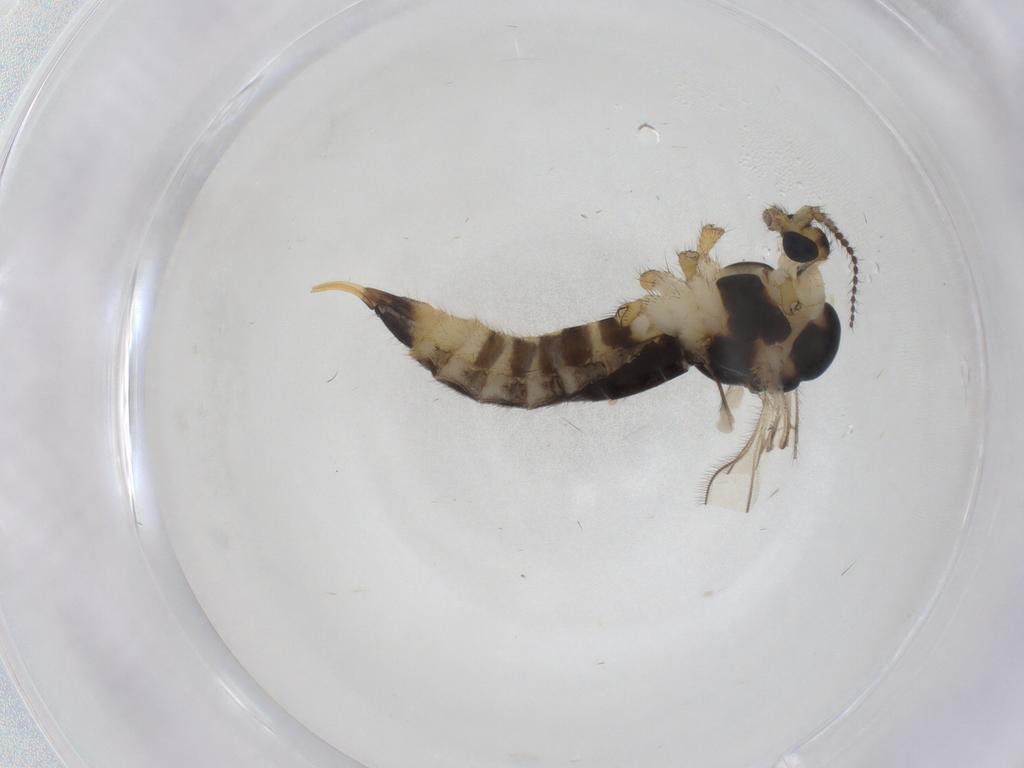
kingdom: Animalia
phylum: Arthropoda
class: Insecta
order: Diptera
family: Limoniidae
